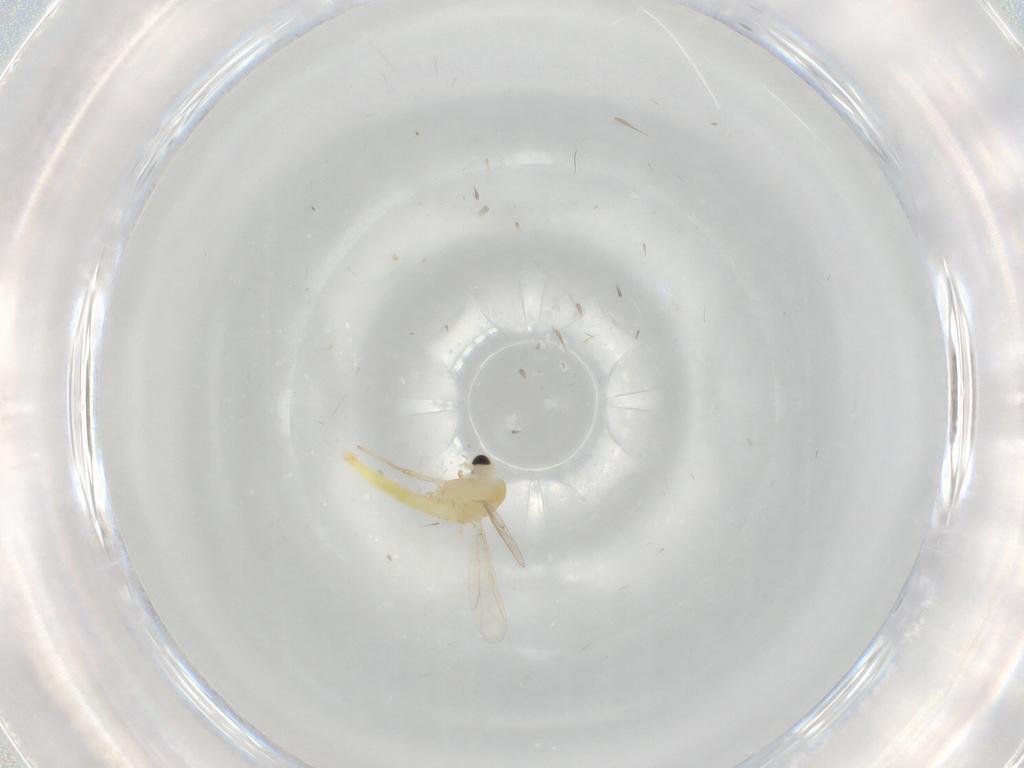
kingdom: Animalia
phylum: Arthropoda
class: Insecta
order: Diptera
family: Chironomidae
